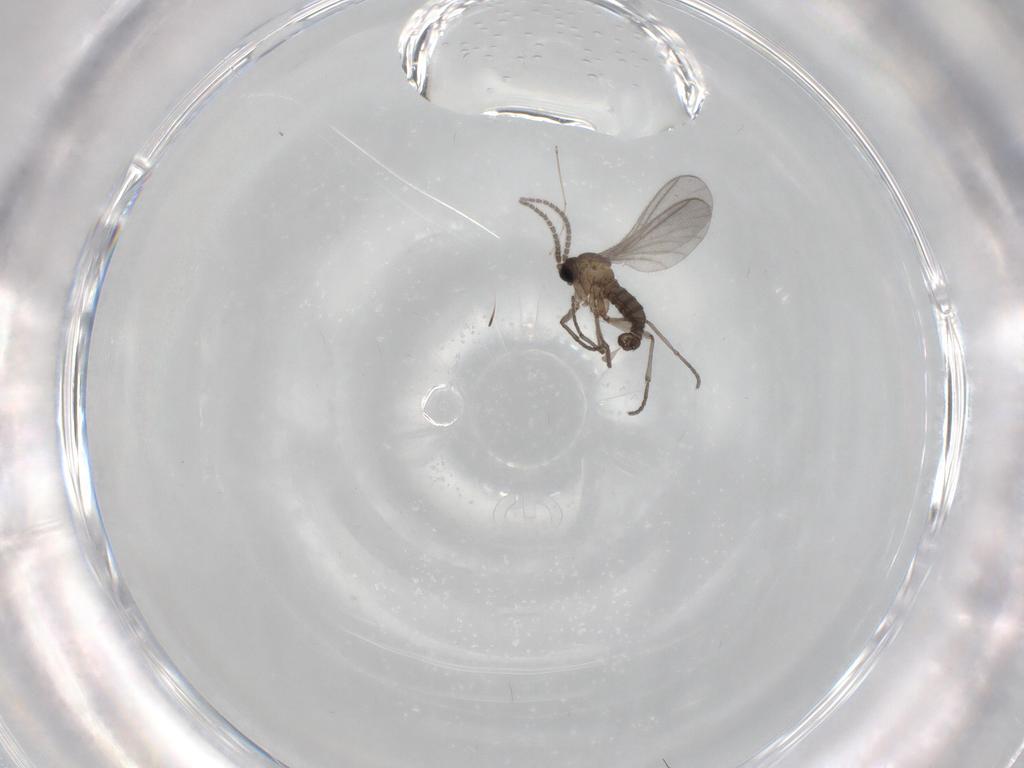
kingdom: Animalia
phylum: Arthropoda
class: Insecta
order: Diptera
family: Sciaridae
